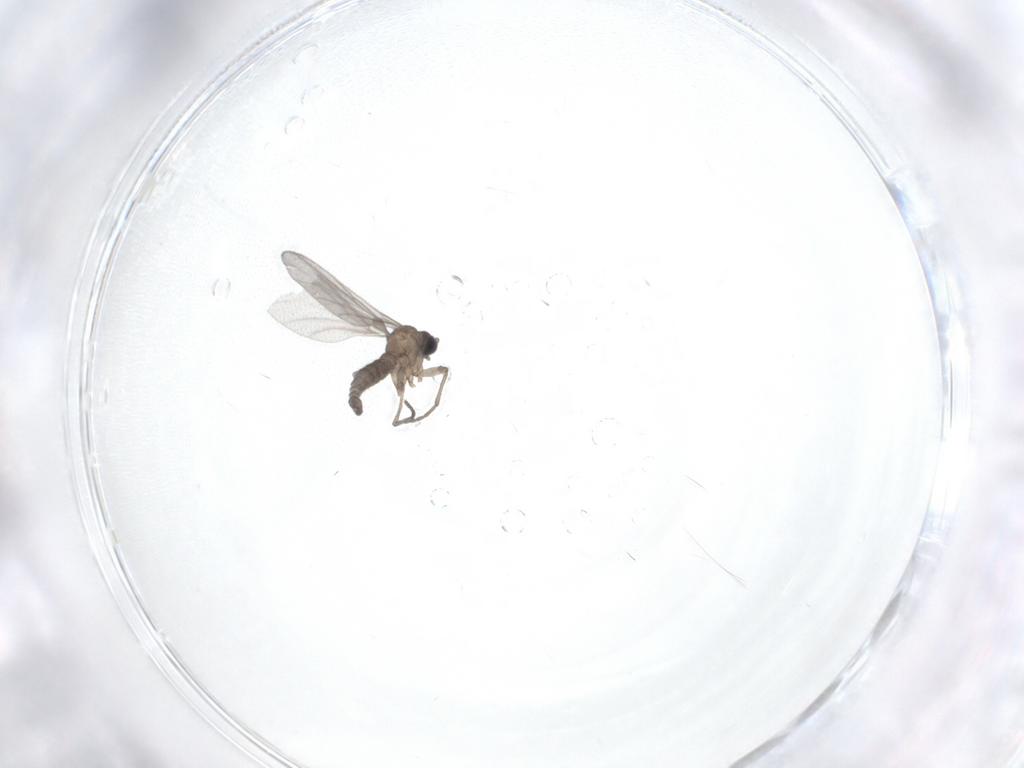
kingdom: Animalia
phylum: Arthropoda
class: Insecta
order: Diptera
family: Sciaridae
